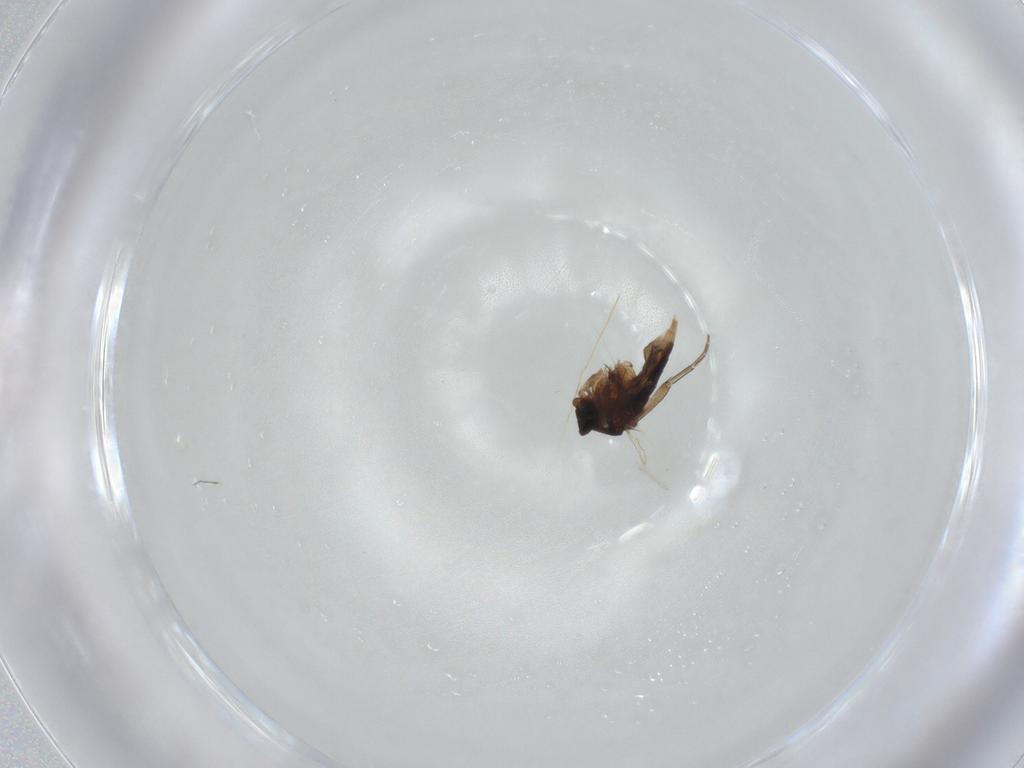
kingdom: Animalia
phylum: Arthropoda
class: Insecta
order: Diptera
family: Phoridae
